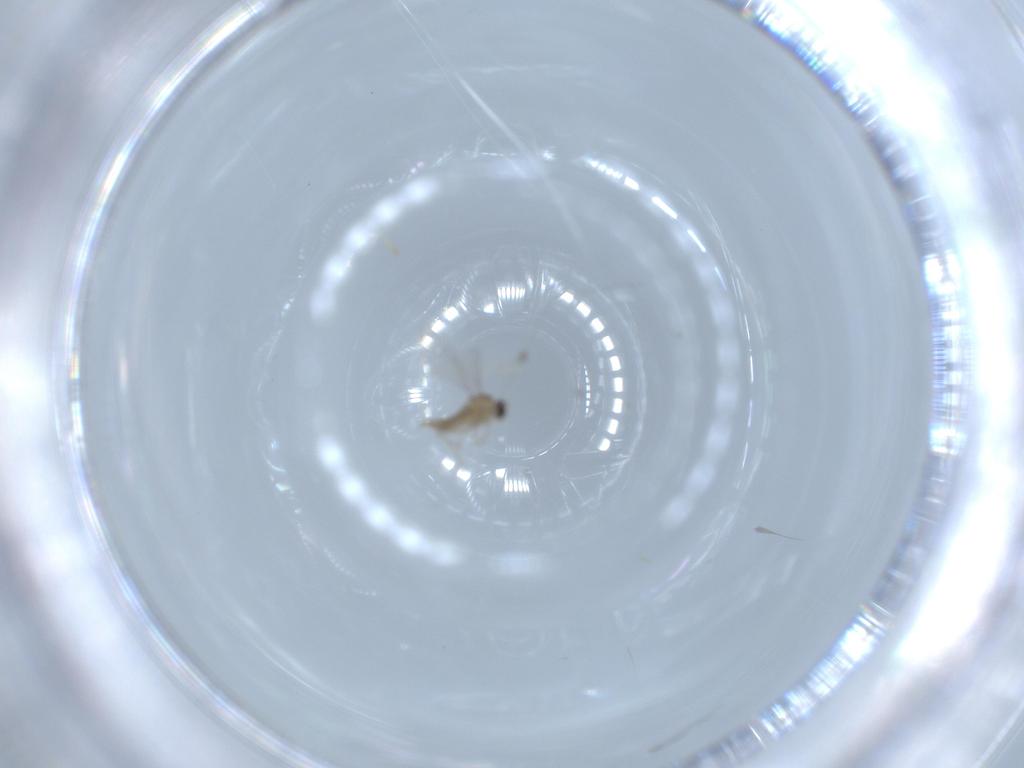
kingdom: Animalia
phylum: Arthropoda
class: Insecta
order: Diptera
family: Cecidomyiidae
